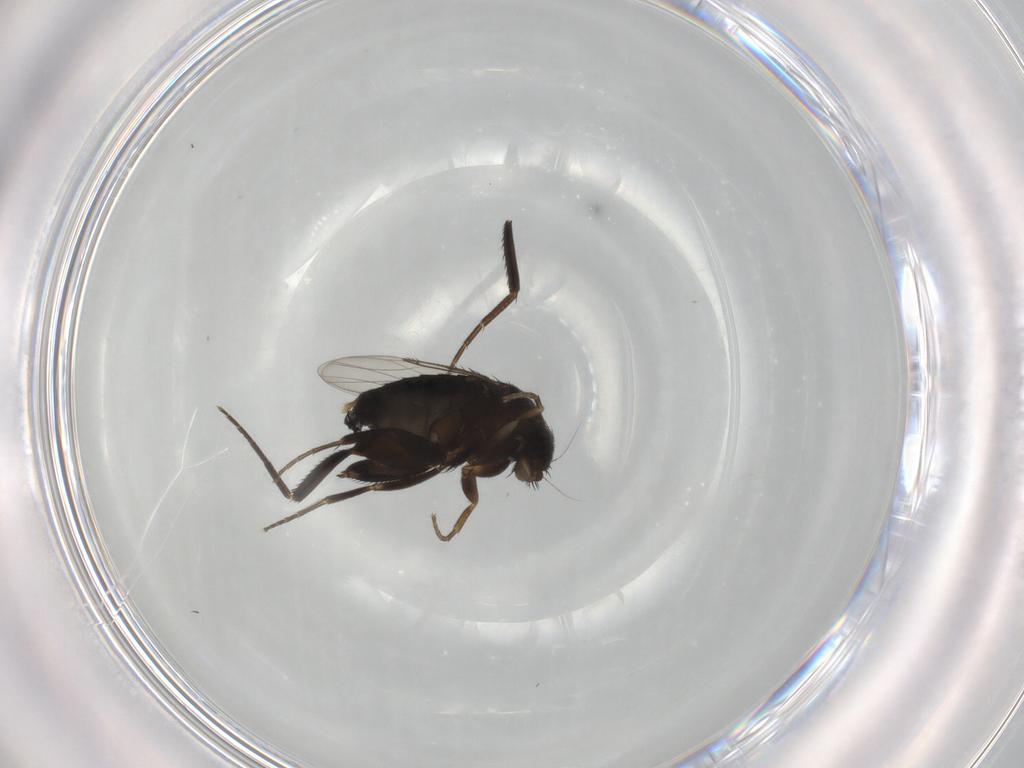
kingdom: Animalia
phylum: Arthropoda
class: Insecta
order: Diptera
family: Phoridae
